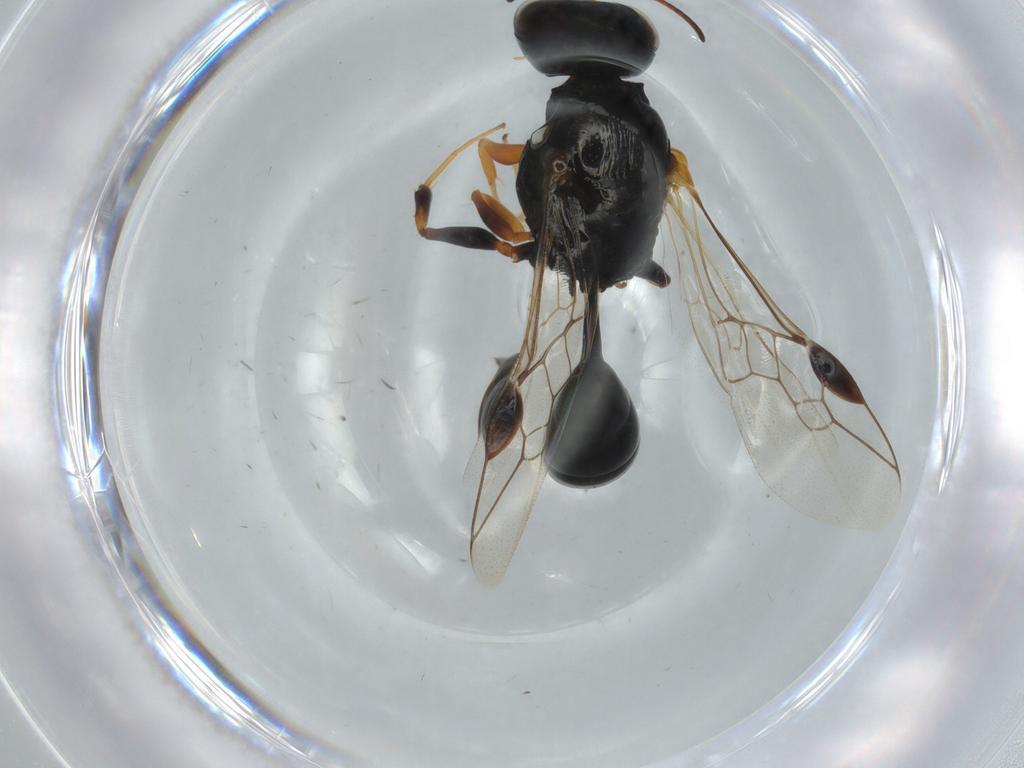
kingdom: Animalia
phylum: Arthropoda
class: Insecta
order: Hymenoptera
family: Crabronidae
